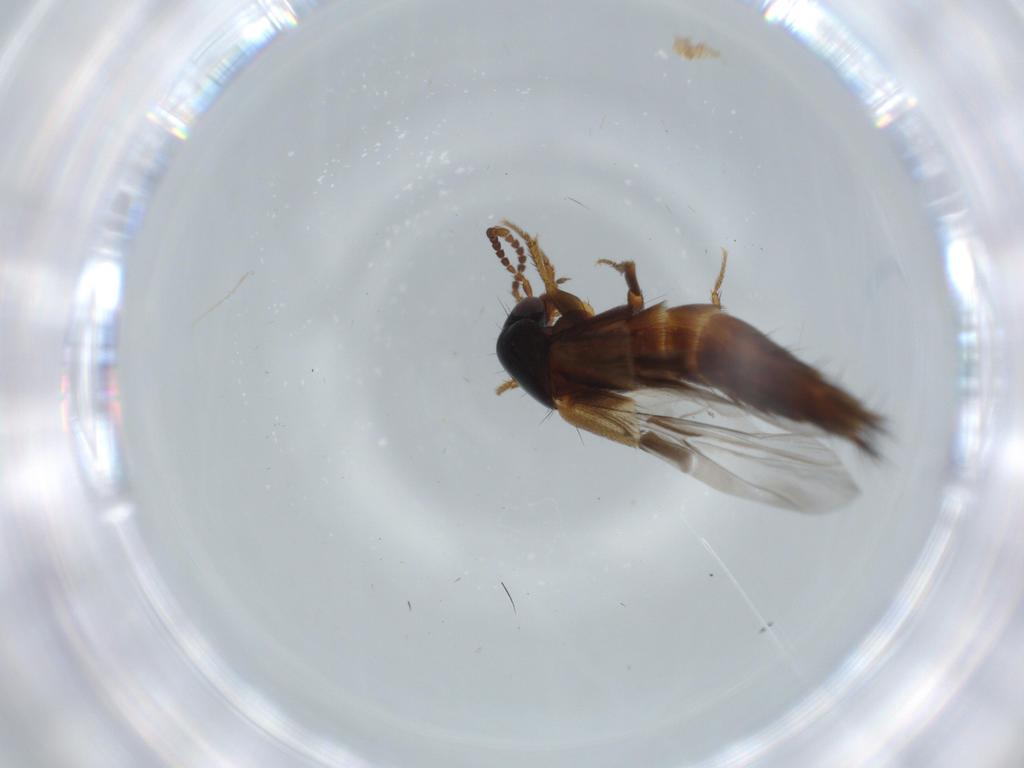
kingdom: Animalia
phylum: Arthropoda
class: Insecta
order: Coleoptera
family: Staphylinidae
